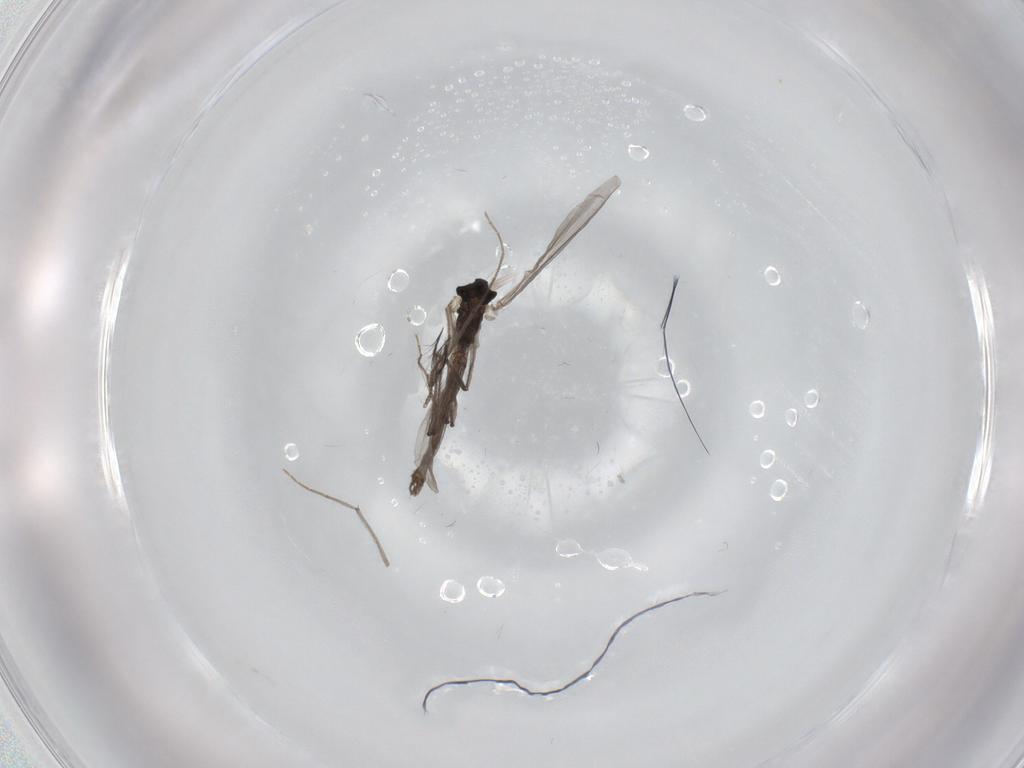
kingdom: Animalia
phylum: Arthropoda
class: Insecta
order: Diptera
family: Chironomidae
